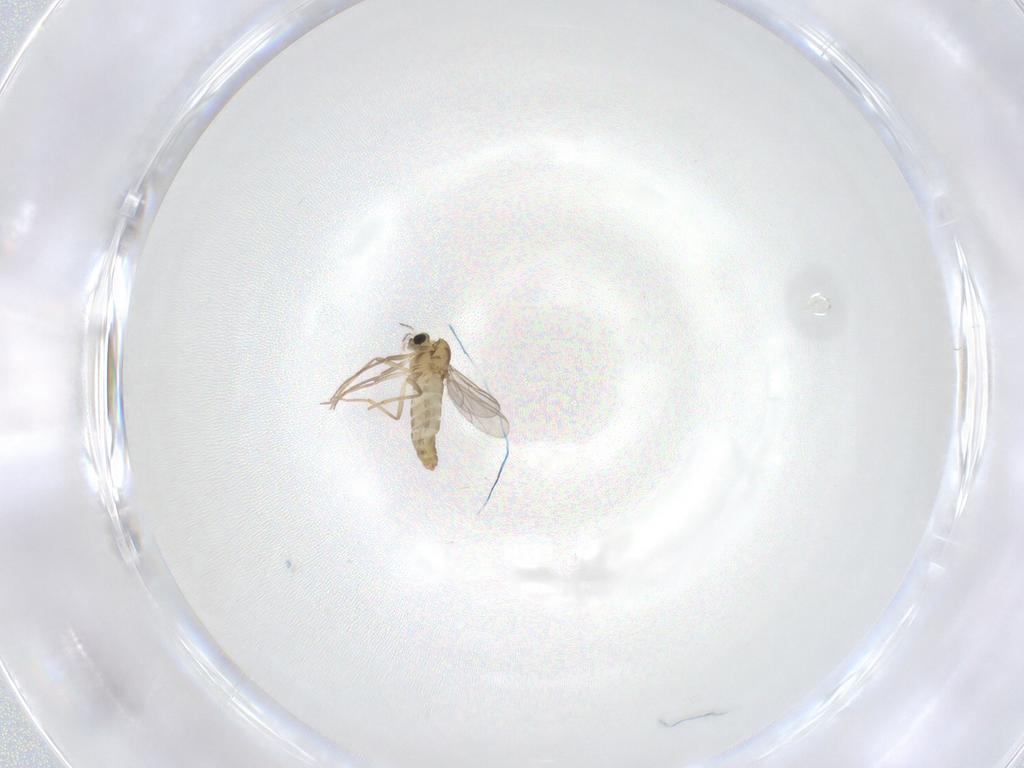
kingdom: Animalia
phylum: Arthropoda
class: Insecta
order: Diptera
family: Chironomidae
